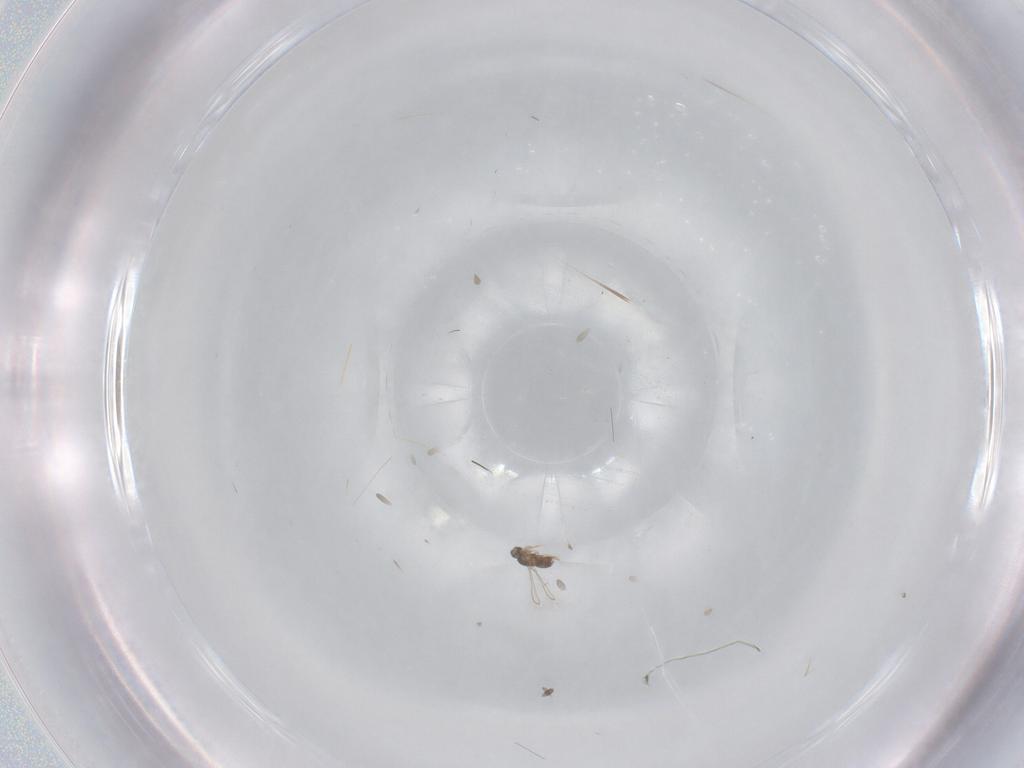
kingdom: Animalia
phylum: Arthropoda
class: Insecta
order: Hymenoptera
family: Mymaridae
